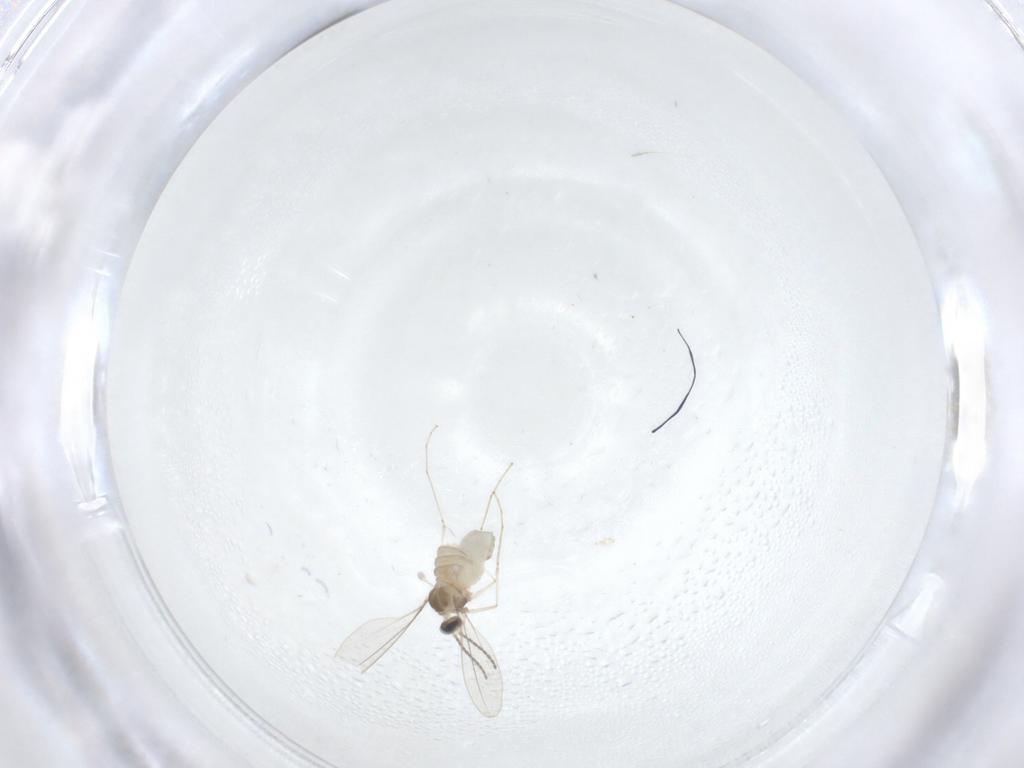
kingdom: Animalia
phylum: Arthropoda
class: Insecta
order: Diptera
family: Cecidomyiidae
